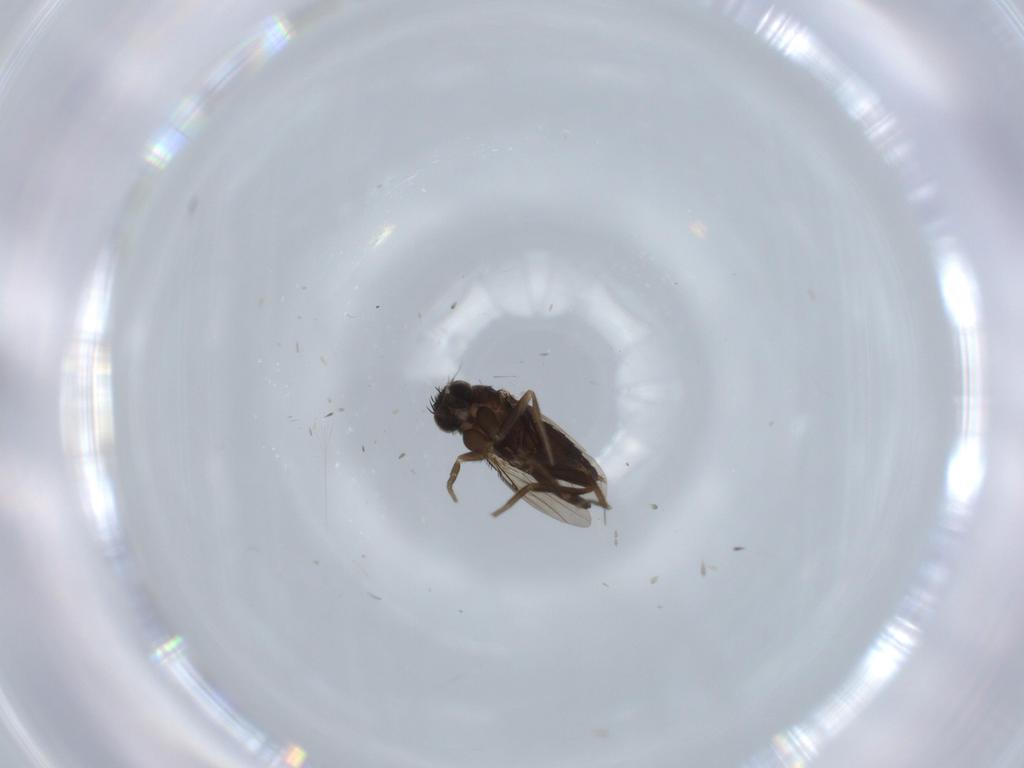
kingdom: Animalia
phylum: Arthropoda
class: Insecta
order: Diptera
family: Phoridae
